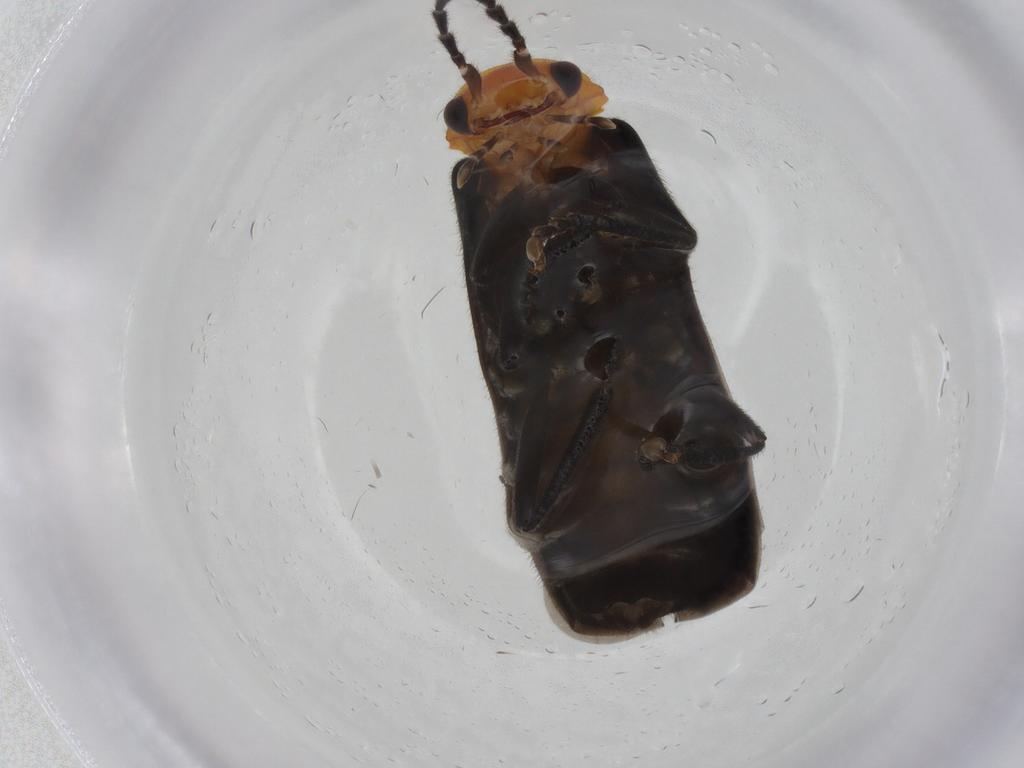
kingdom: Animalia
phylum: Arthropoda
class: Insecta
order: Coleoptera
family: Cantharidae
